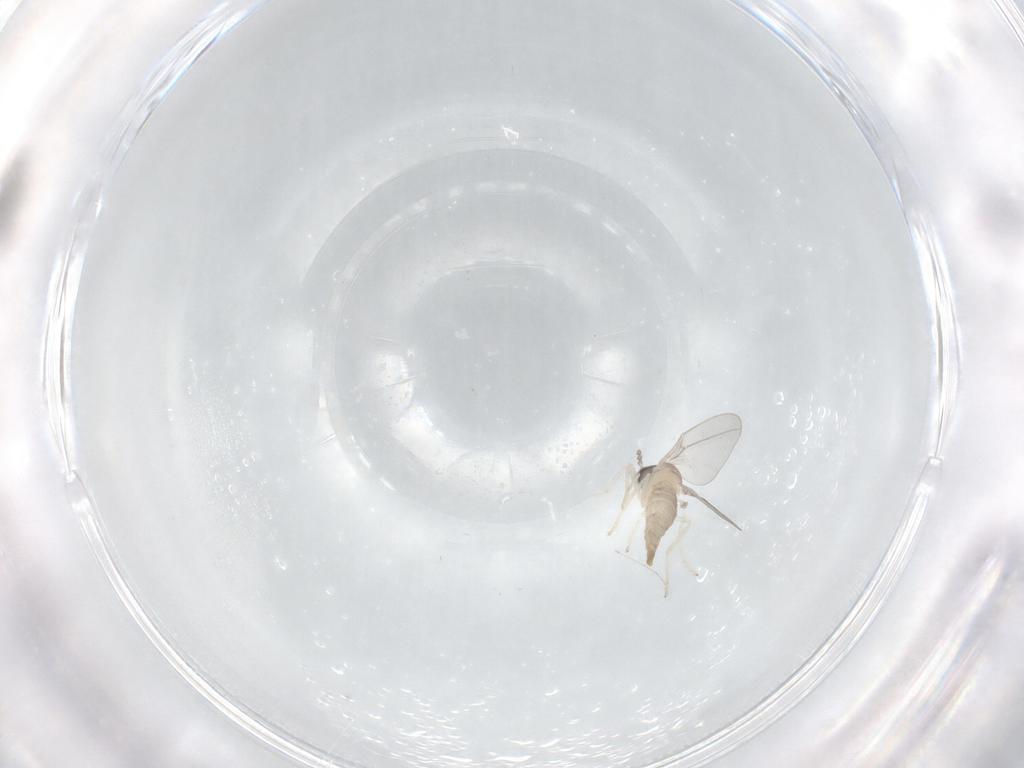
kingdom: Animalia
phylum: Arthropoda
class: Insecta
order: Diptera
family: Cecidomyiidae
